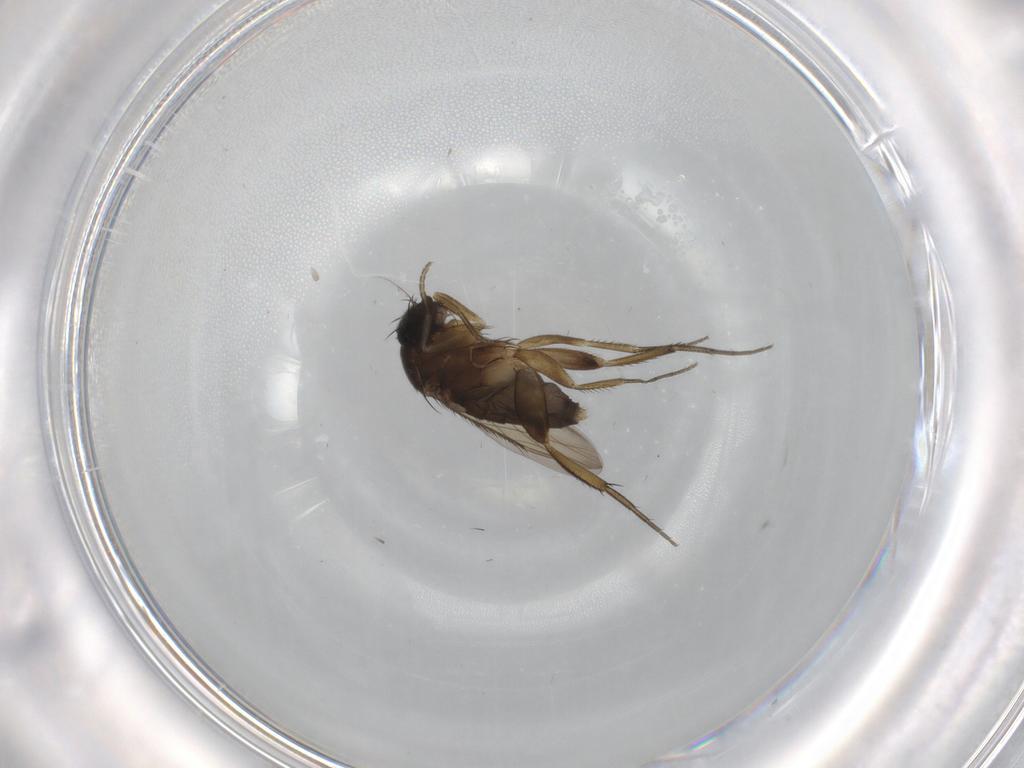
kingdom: Animalia
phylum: Arthropoda
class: Insecta
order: Diptera
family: Phoridae
